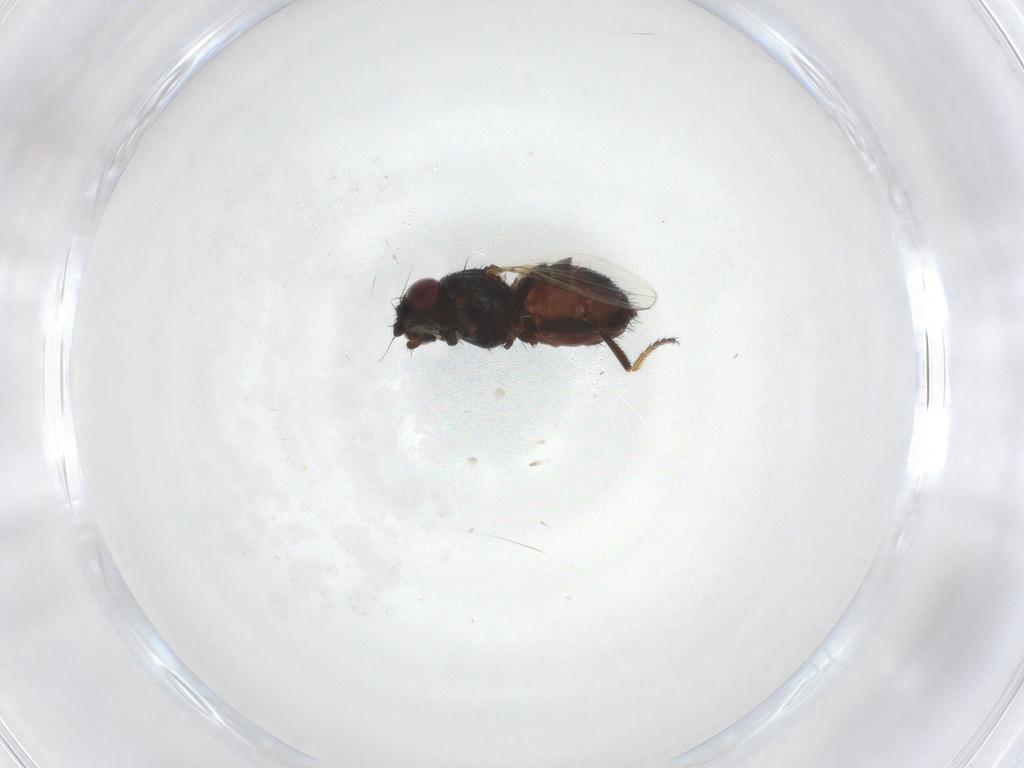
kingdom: Animalia
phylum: Arthropoda
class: Insecta
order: Diptera
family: Milichiidae
